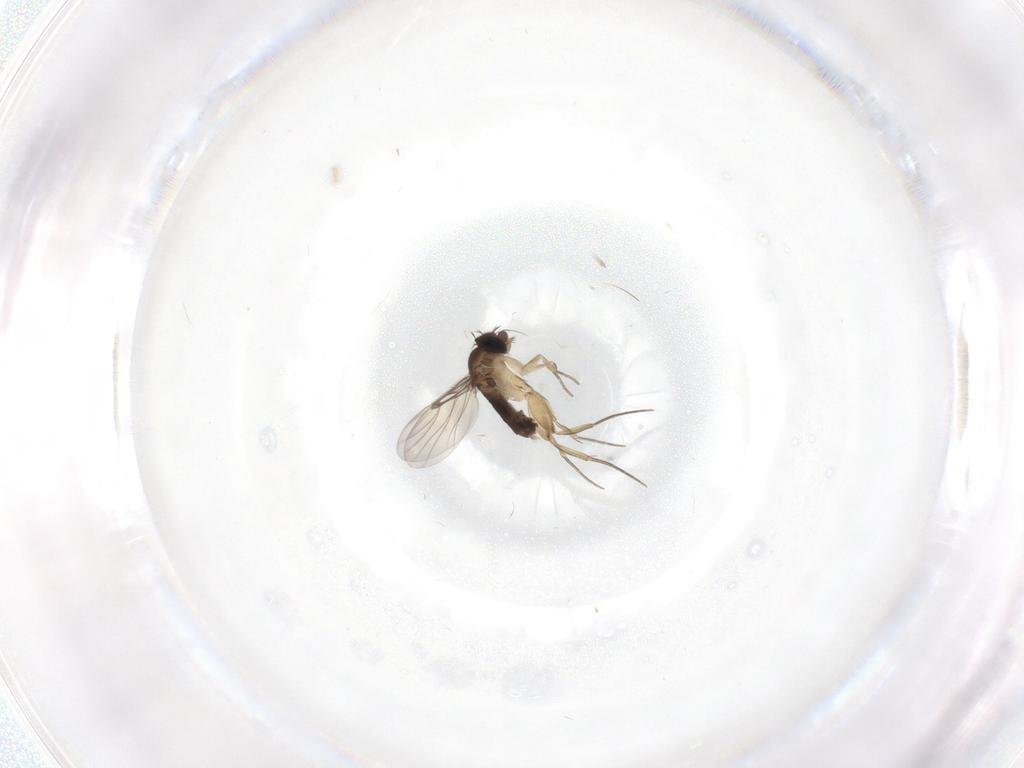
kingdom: Animalia
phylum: Arthropoda
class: Insecta
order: Diptera
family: Phoridae
